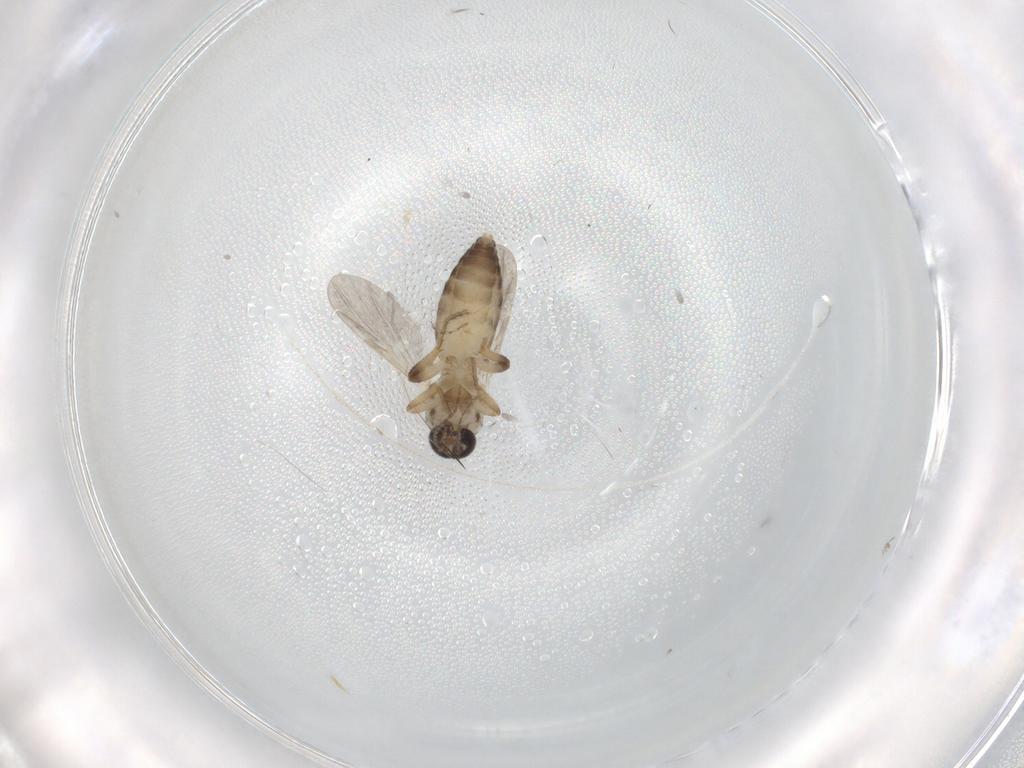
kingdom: Animalia
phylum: Arthropoda
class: Insecta
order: Diptera
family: Ceratopogonidae
